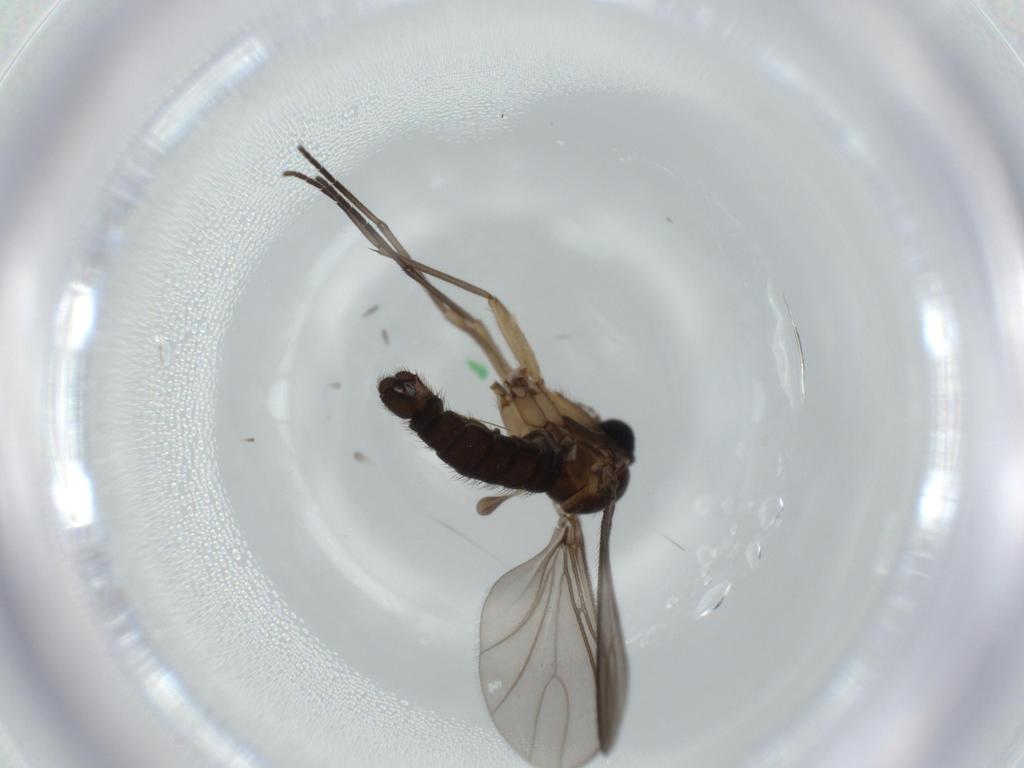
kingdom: Animalia
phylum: Arthropoda
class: Insecta
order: Diptera
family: Sciaridae
